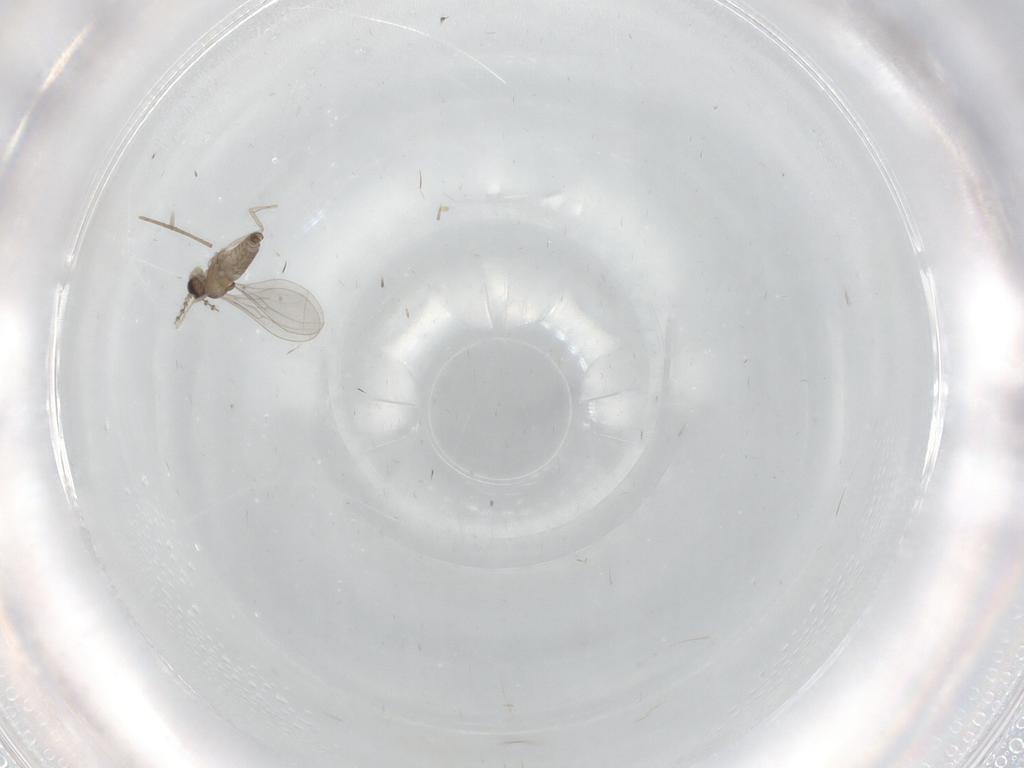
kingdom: Animalia
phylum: Arthropoda
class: Insecta
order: Diptera
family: Cecidomyiidae
